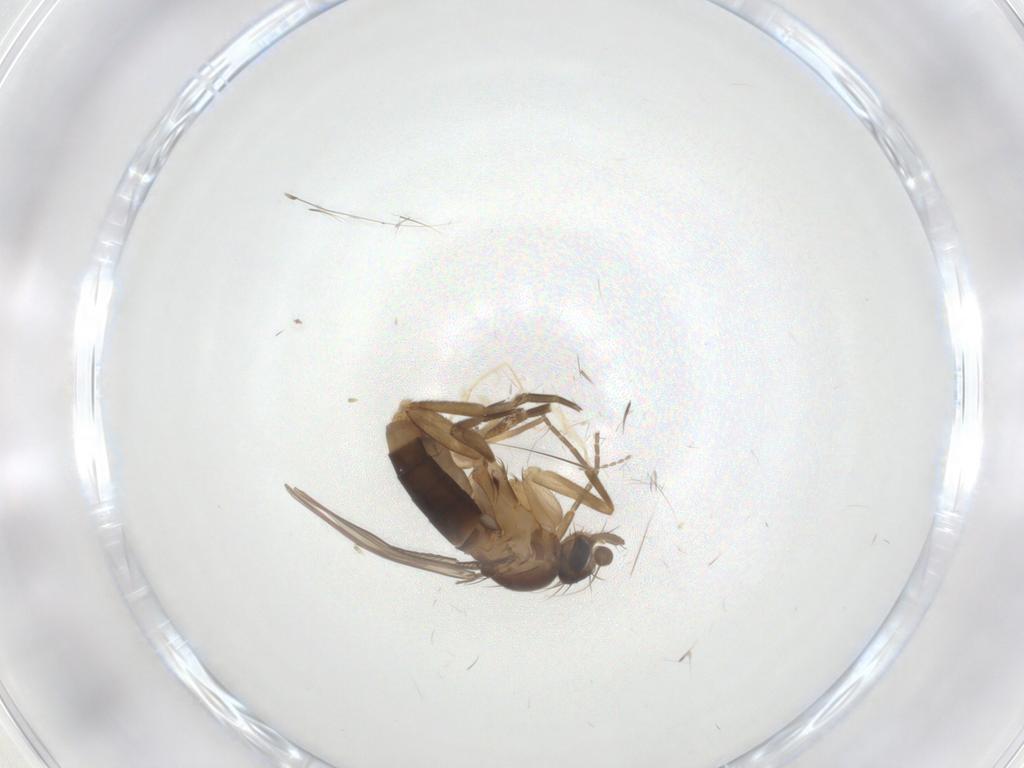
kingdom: Animalia
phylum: Arthropoda
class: Insecta
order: Diptera
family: Chironomidae
